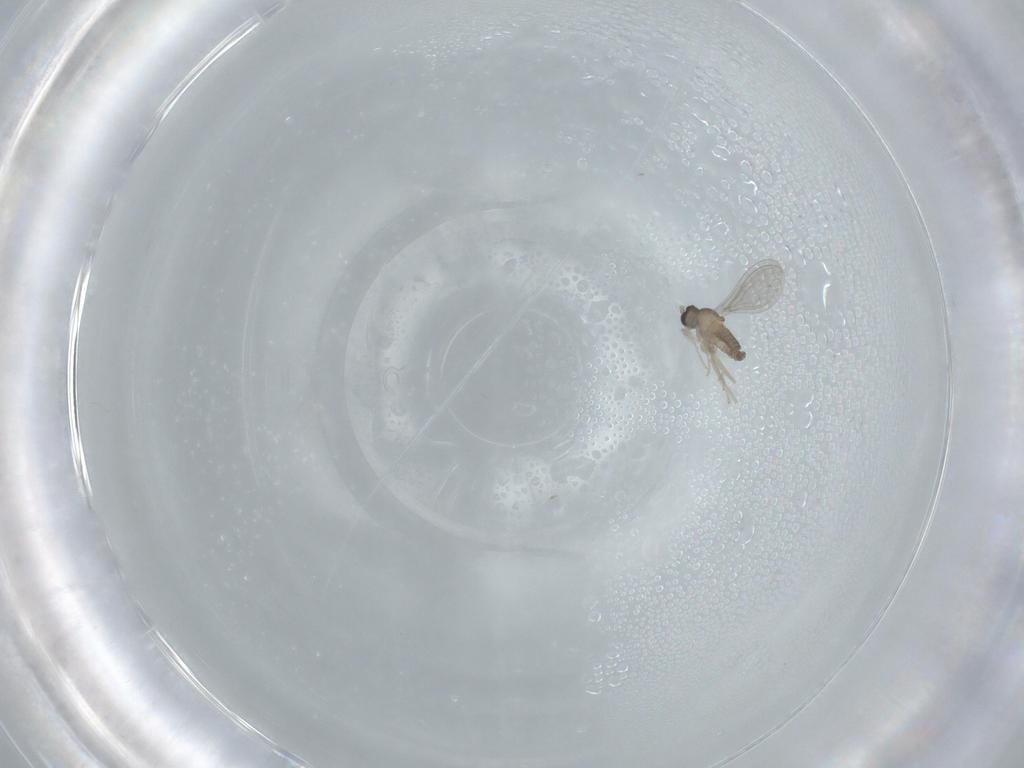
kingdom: Animalia
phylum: Arthropoda
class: Insecta
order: Diptera
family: Cecidomyiidae
